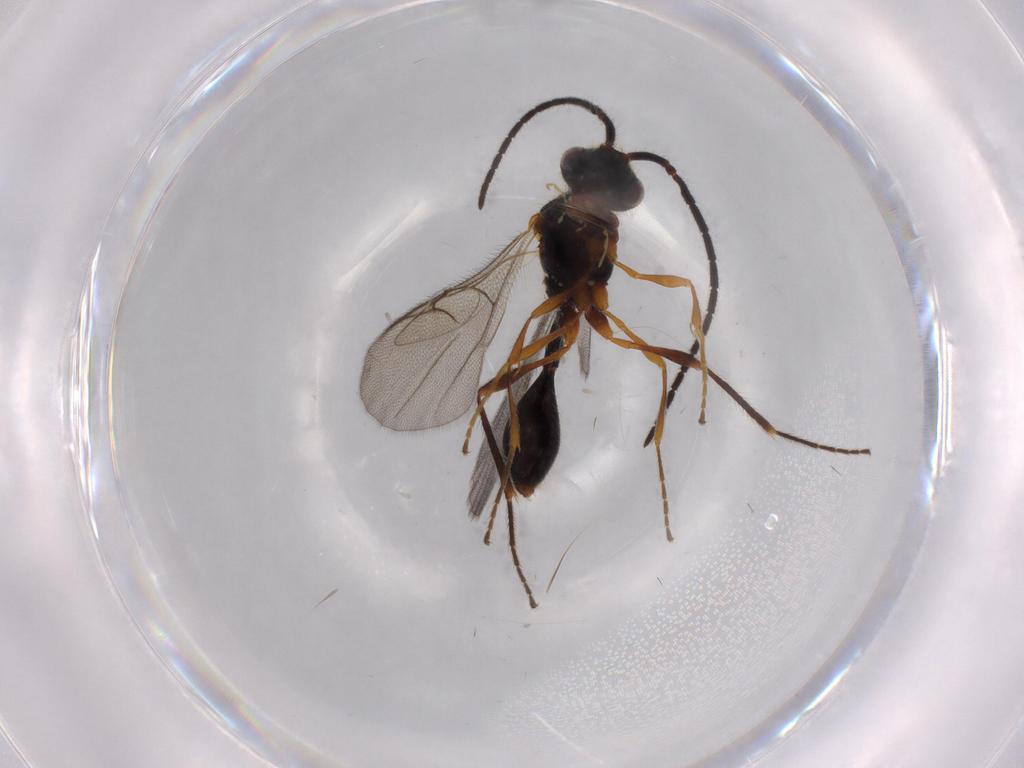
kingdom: Animalia
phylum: Arthropoda
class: Insecta
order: Hymenoptera
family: Diapriidae
